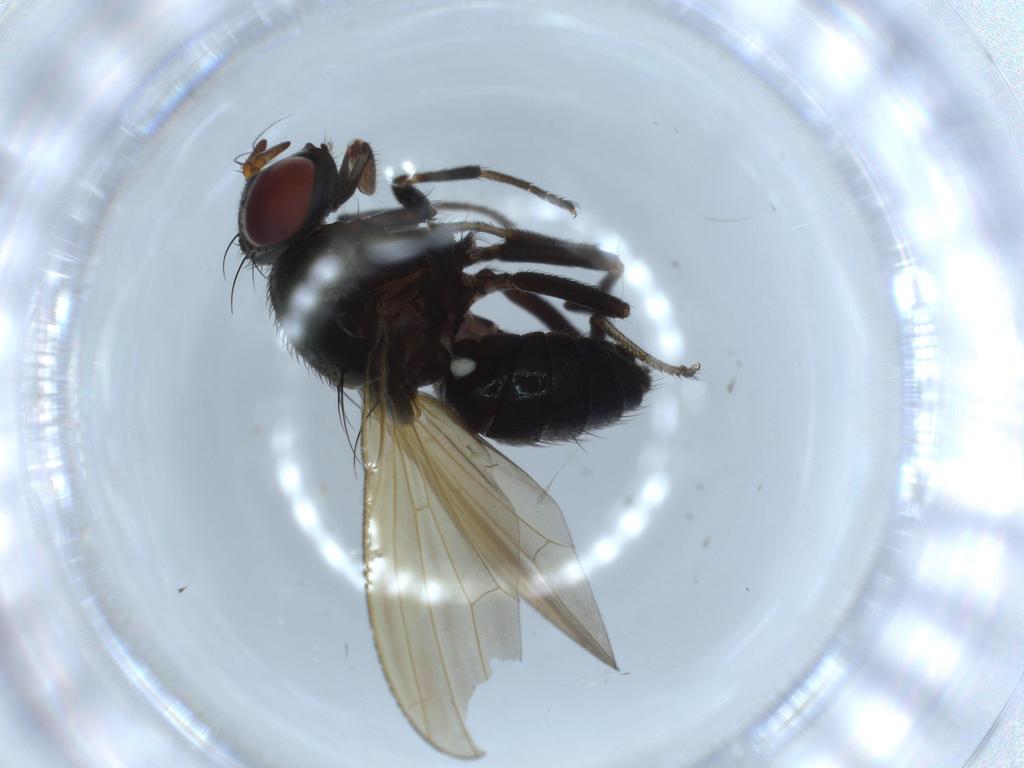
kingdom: Animalia
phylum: Arthropoda
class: Insecta
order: Diptera
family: Lauxaniidae
